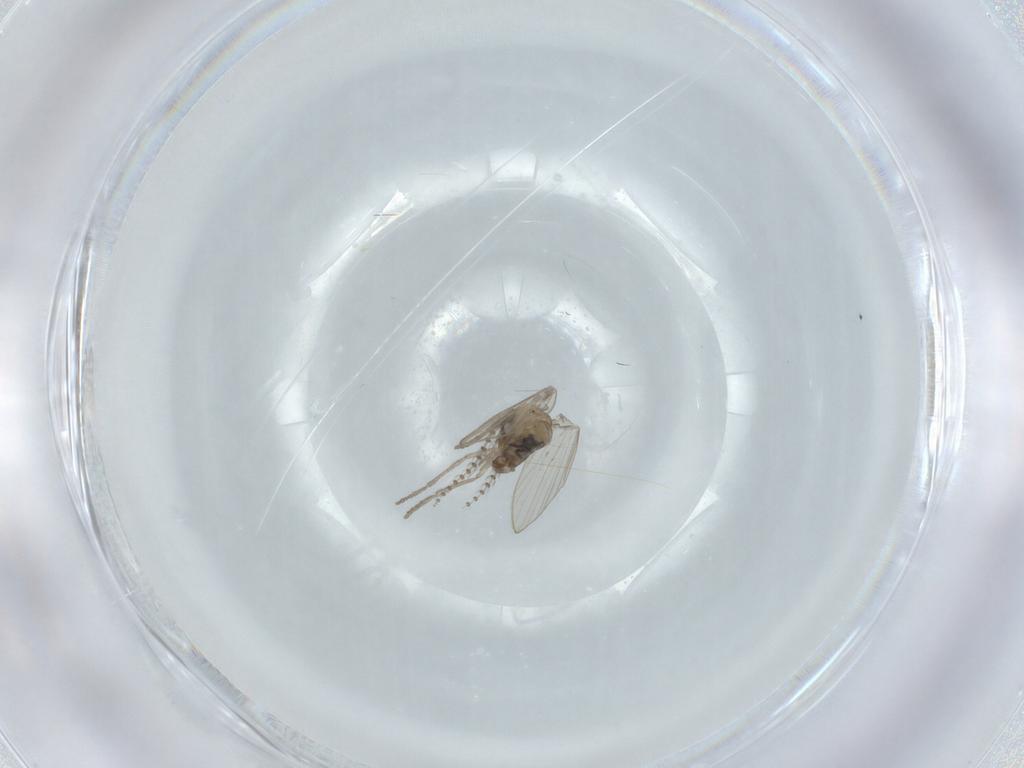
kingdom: Animalia
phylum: Arthropoda
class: Insecta
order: Diptera
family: Psychodidae
